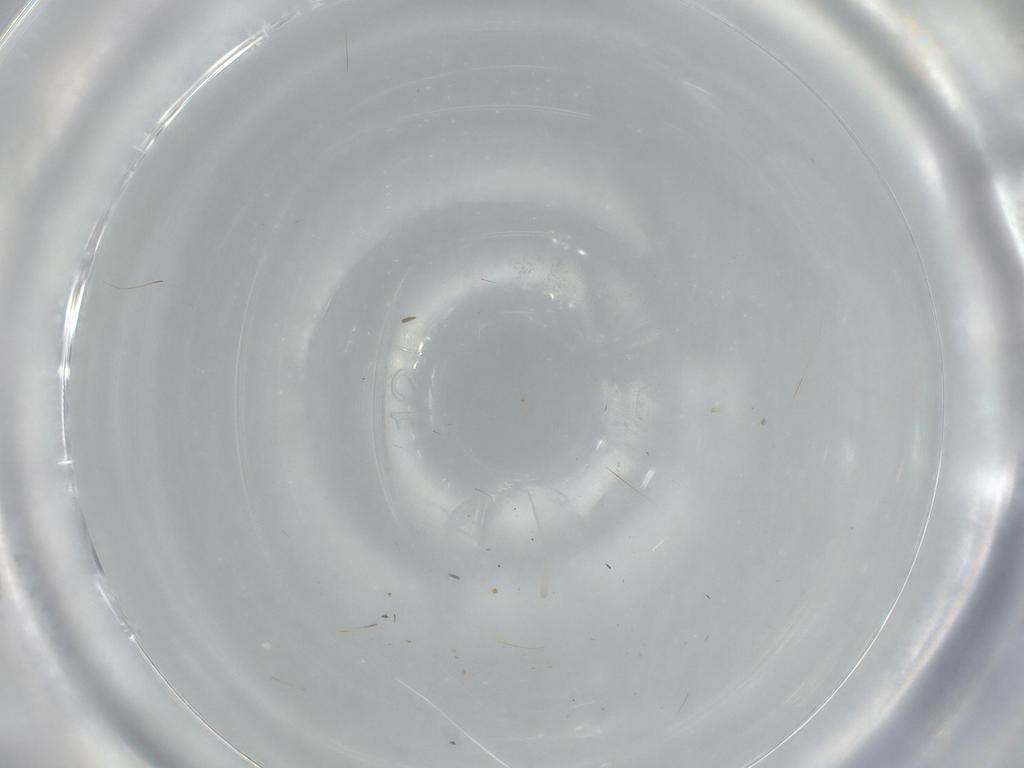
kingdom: Animalia
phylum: Arthropoda
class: Insecta
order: Diptera
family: Phoridae
